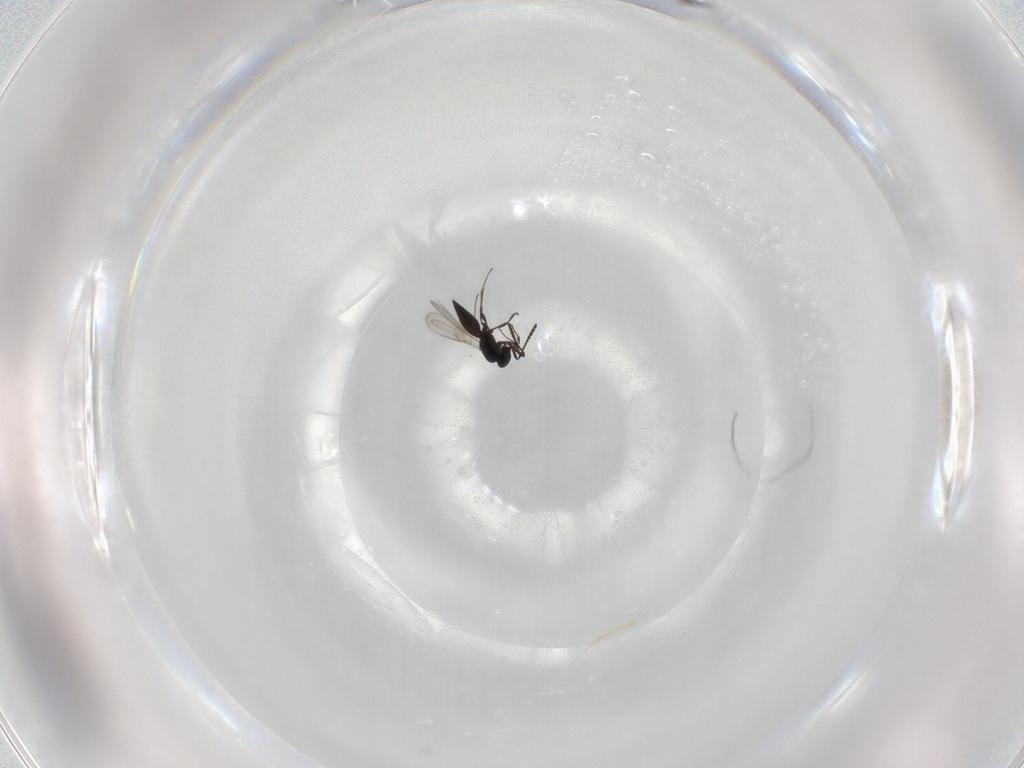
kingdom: Animalia
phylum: Arthropoda
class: Insecta
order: Hymenoptera
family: Scelionidae
